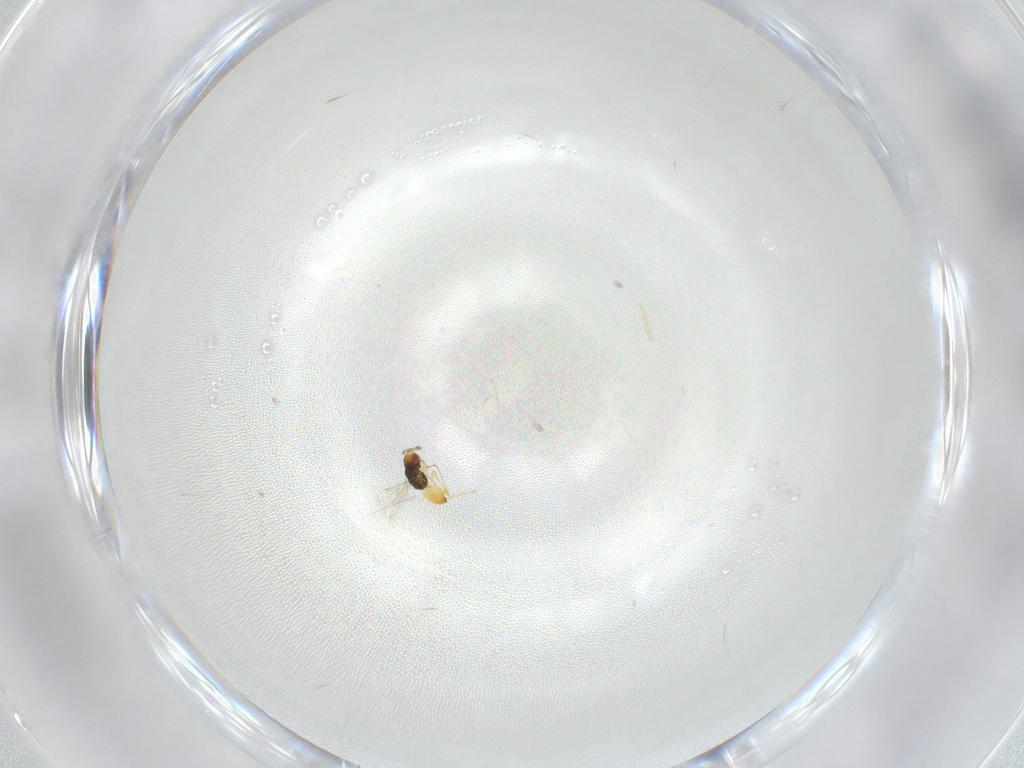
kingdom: Animalia
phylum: Arthropoda
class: Insecta
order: Hymenoptera
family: Eulophidae
